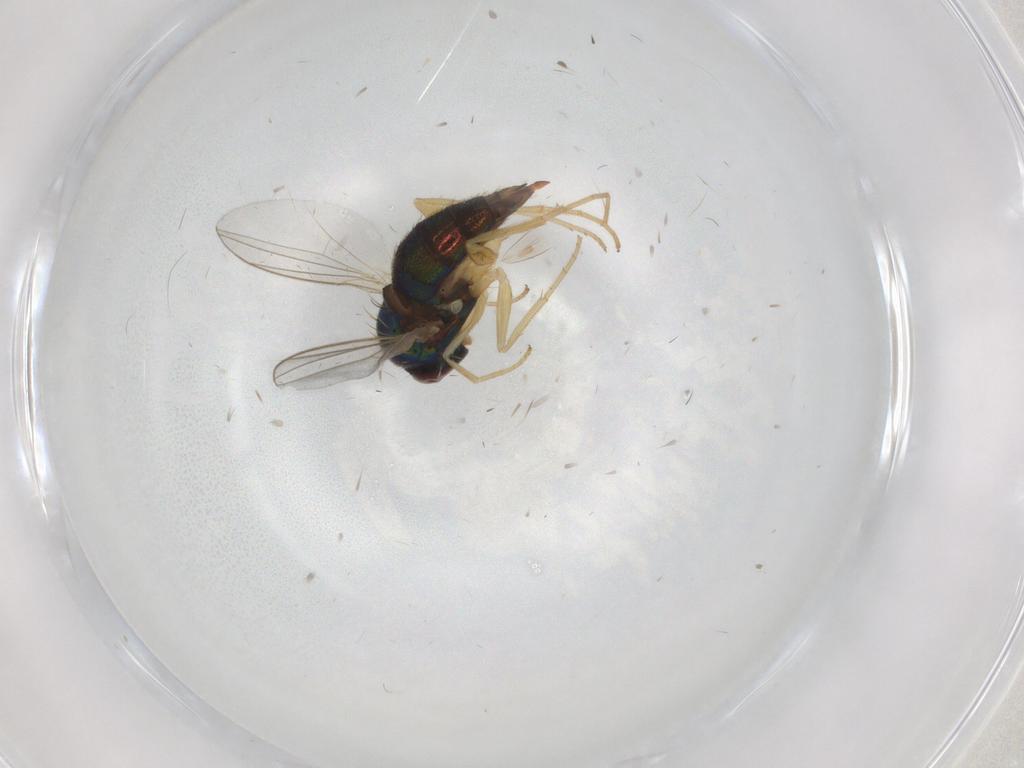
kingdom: Animalia
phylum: Arthropoda
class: Insecta
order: Diptera
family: Dolichopodidae
